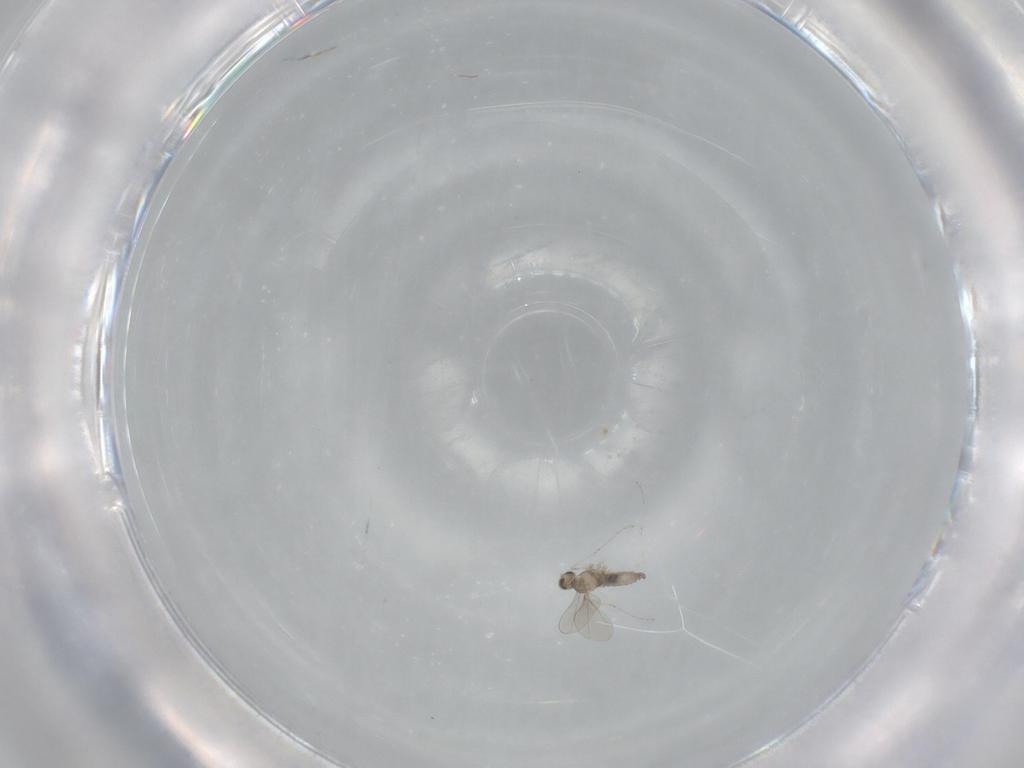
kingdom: Animalia
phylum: Arthropoda
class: Insecta
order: Diptera
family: Cecidomyiidae
